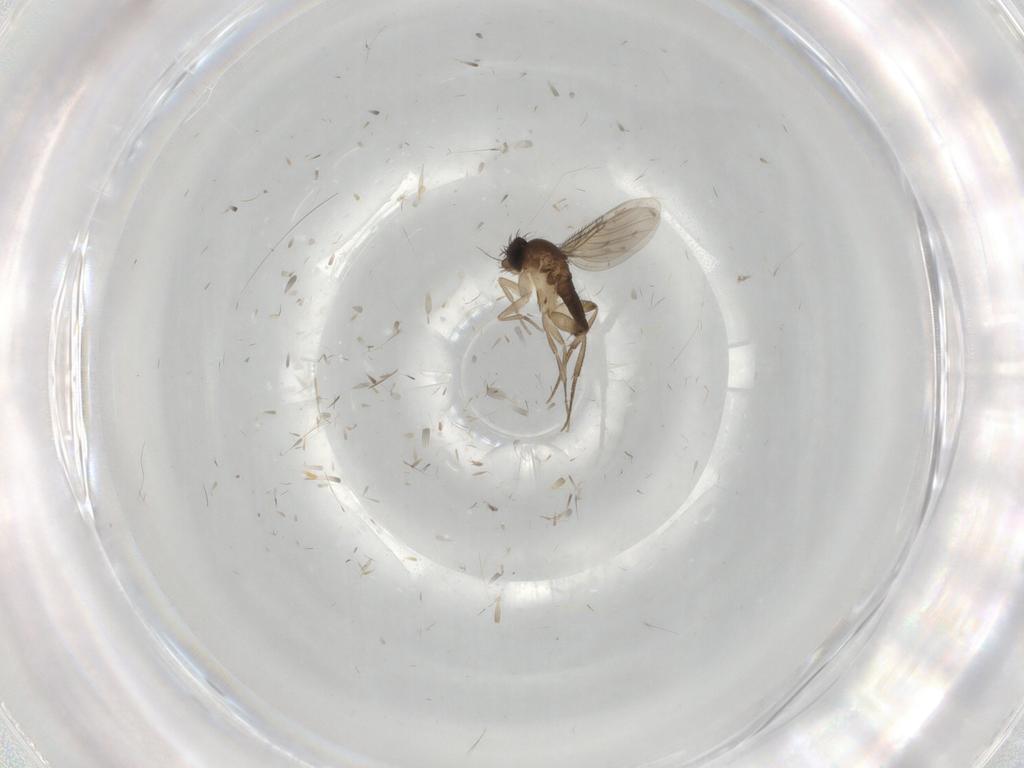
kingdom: Animalia
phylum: Arthropoda
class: Insecta
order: Diptera
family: Phoridae
